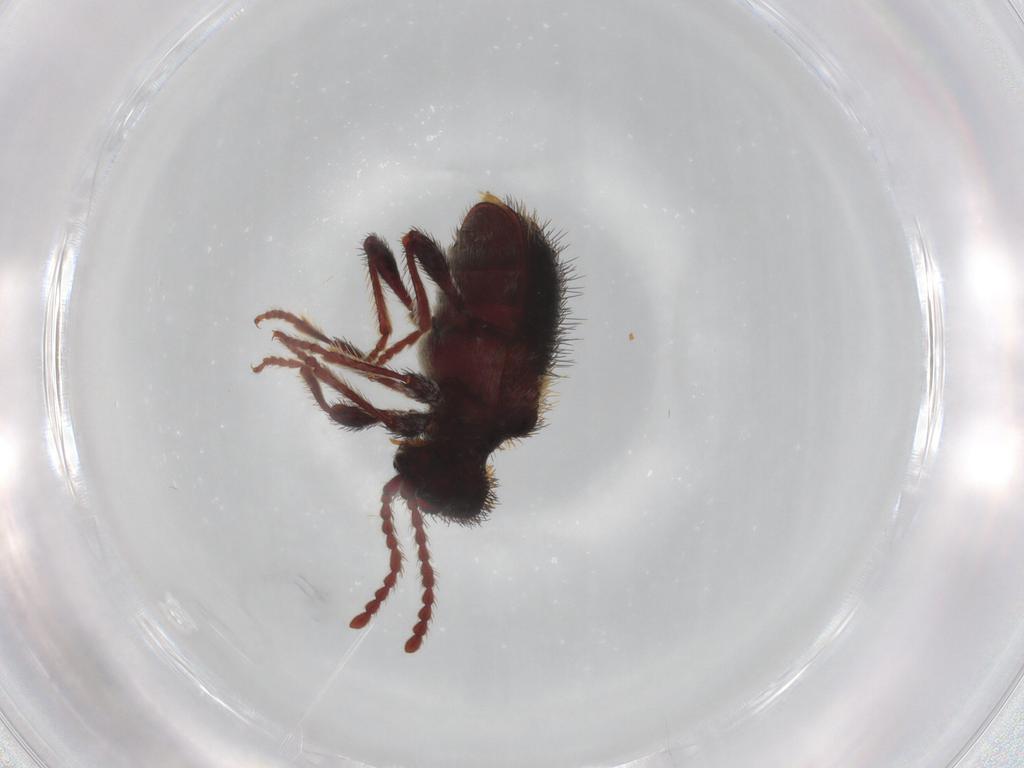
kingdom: Animalia
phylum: Arthropoda
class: Insecta
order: Coleoptera
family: Ptinidae
